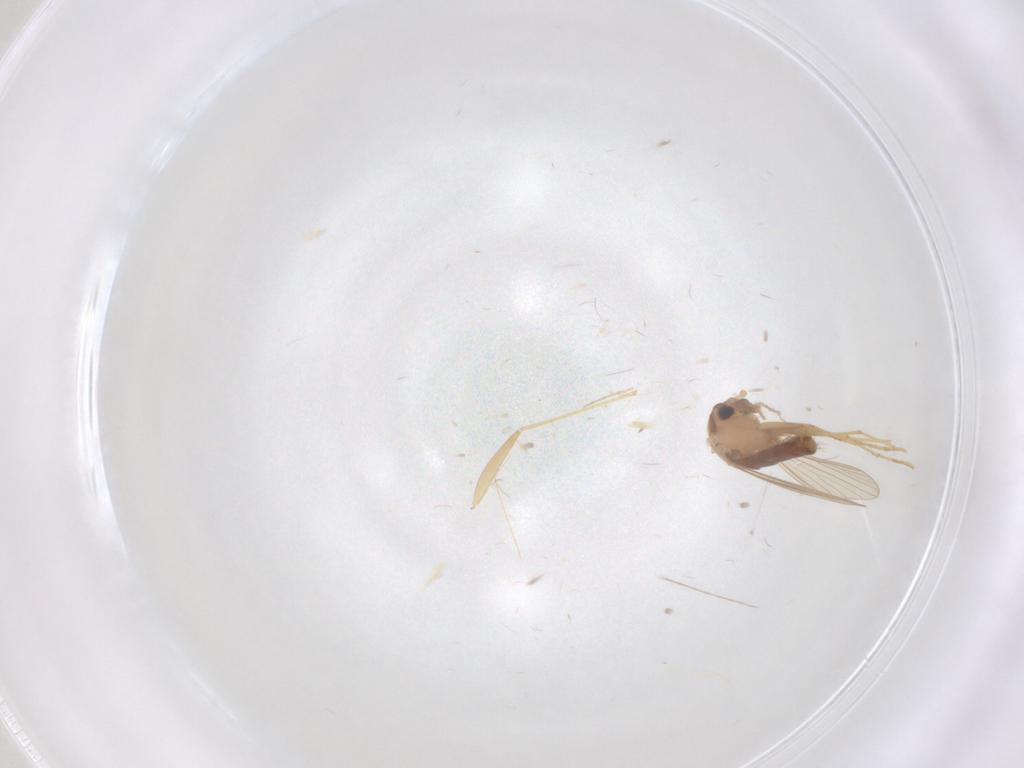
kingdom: Animalia
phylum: Arthropoda
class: Insecta
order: Diptera
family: Psychodidae
